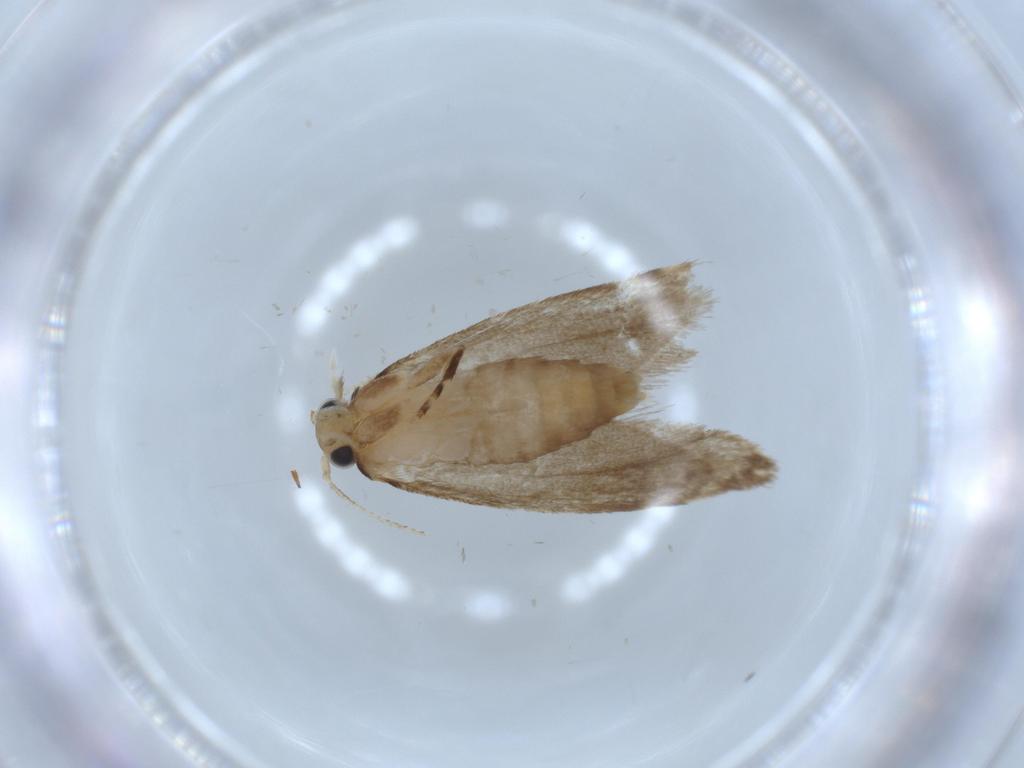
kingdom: Animalia
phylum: Arthropoda
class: Insecta
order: Lepidoptera
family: Tineidae
